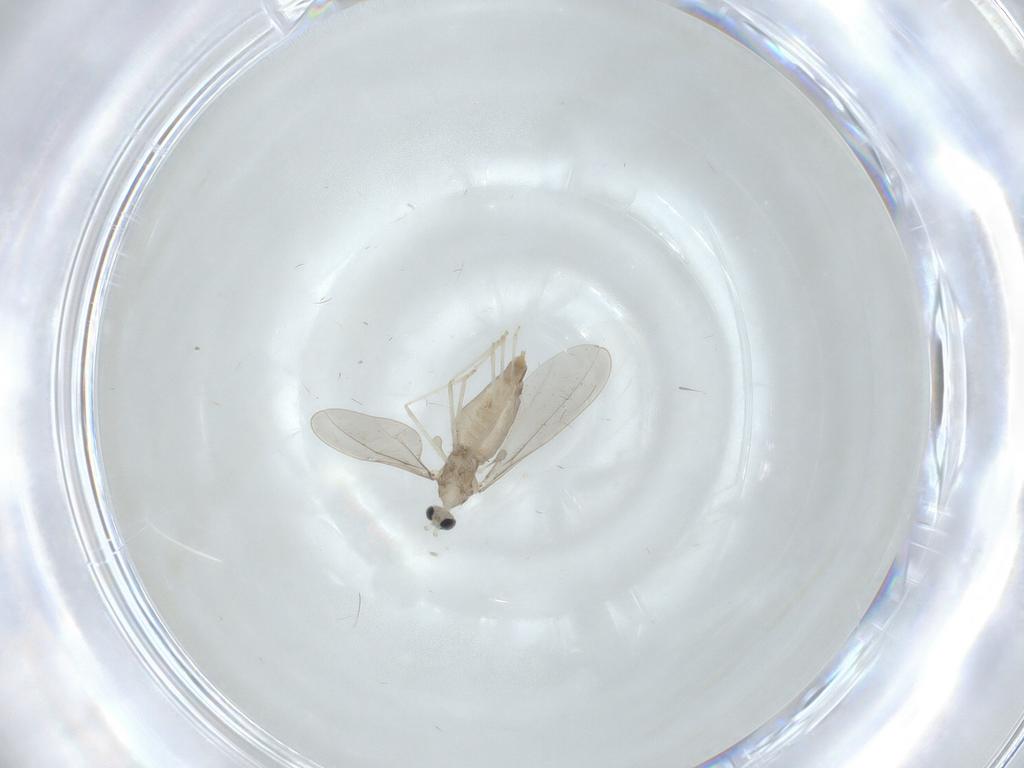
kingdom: Animalia
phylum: Arthropoda
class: Insecta
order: Diptera
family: Cecidomyiidae
